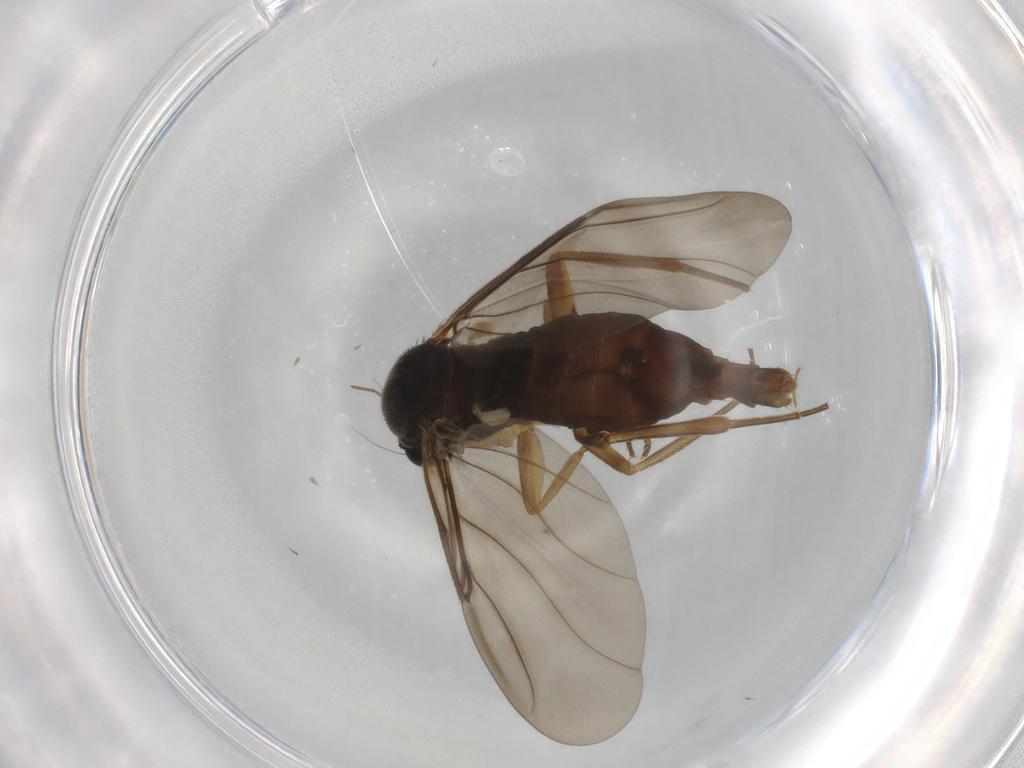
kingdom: Animalia
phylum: Arthropoda
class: Insecta
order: Diptera
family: Phoridae
